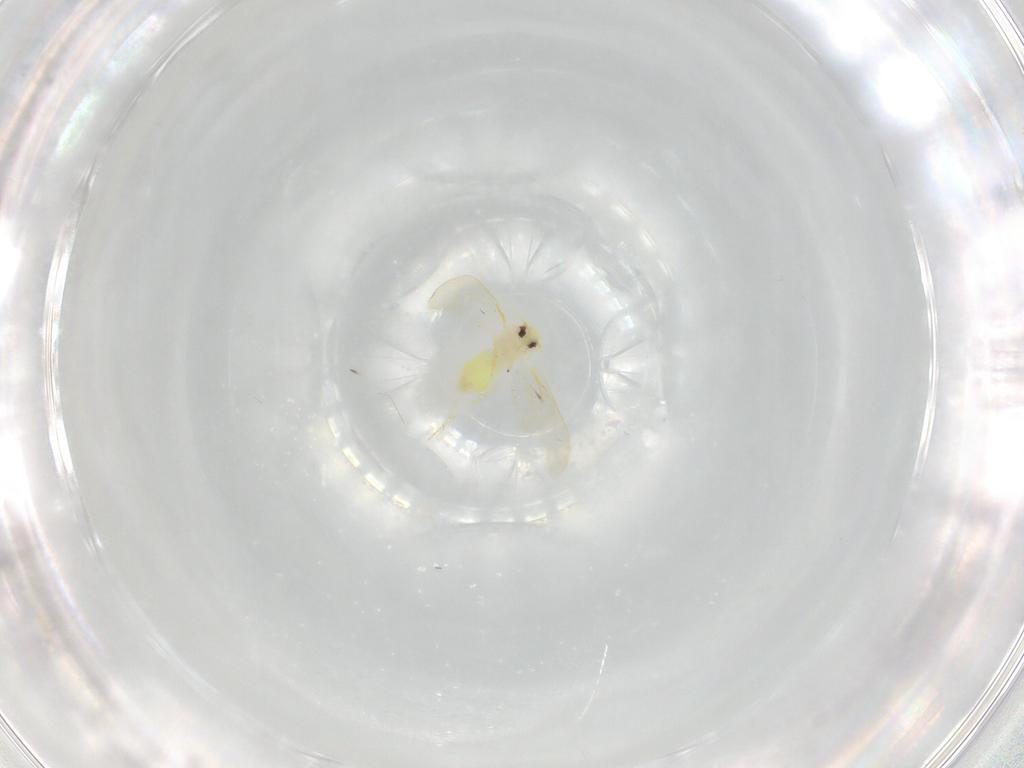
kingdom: Animalia
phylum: Arthropoda
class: Insecta
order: Hemiptera
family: Aleyrodidae
